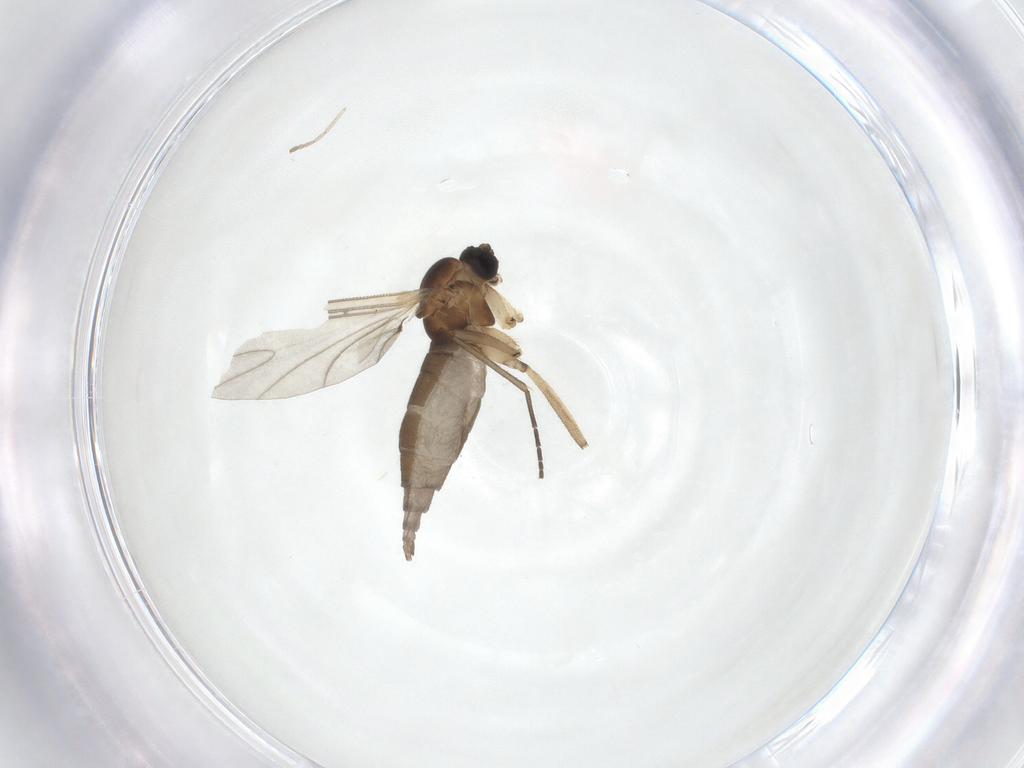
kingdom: Animalia
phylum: Arthropoda
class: Insecta
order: Diptera
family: Sciaridae
